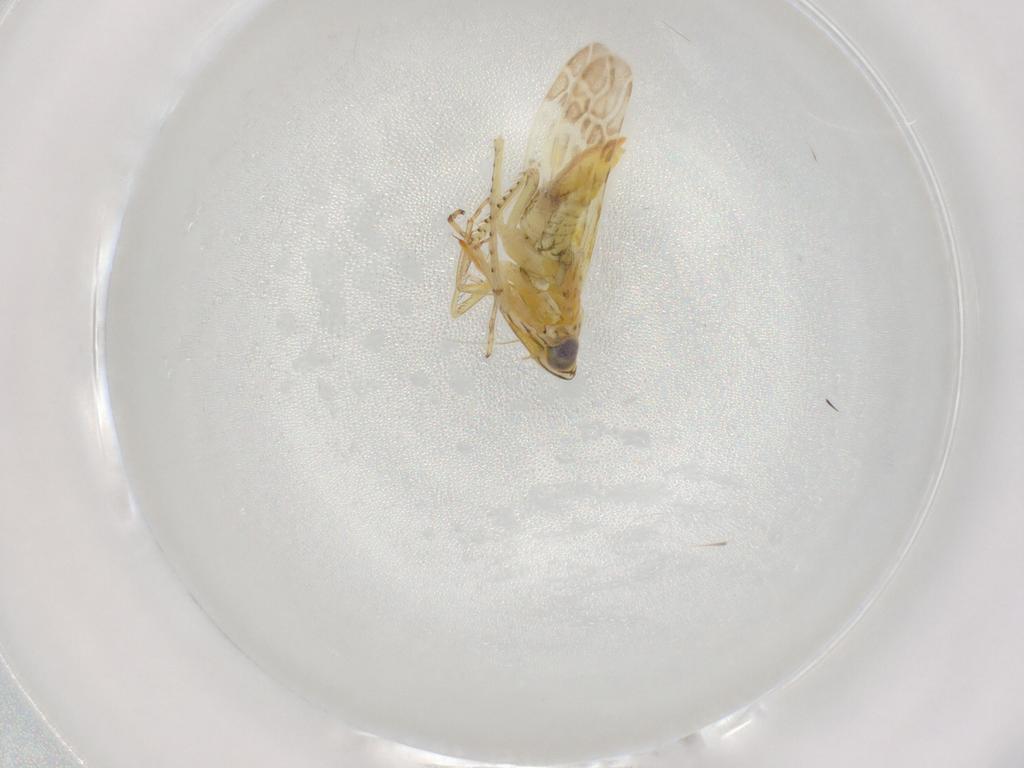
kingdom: Animalia
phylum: Arthropoda
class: Insecta
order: Hemiptera
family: Cicadellidae
